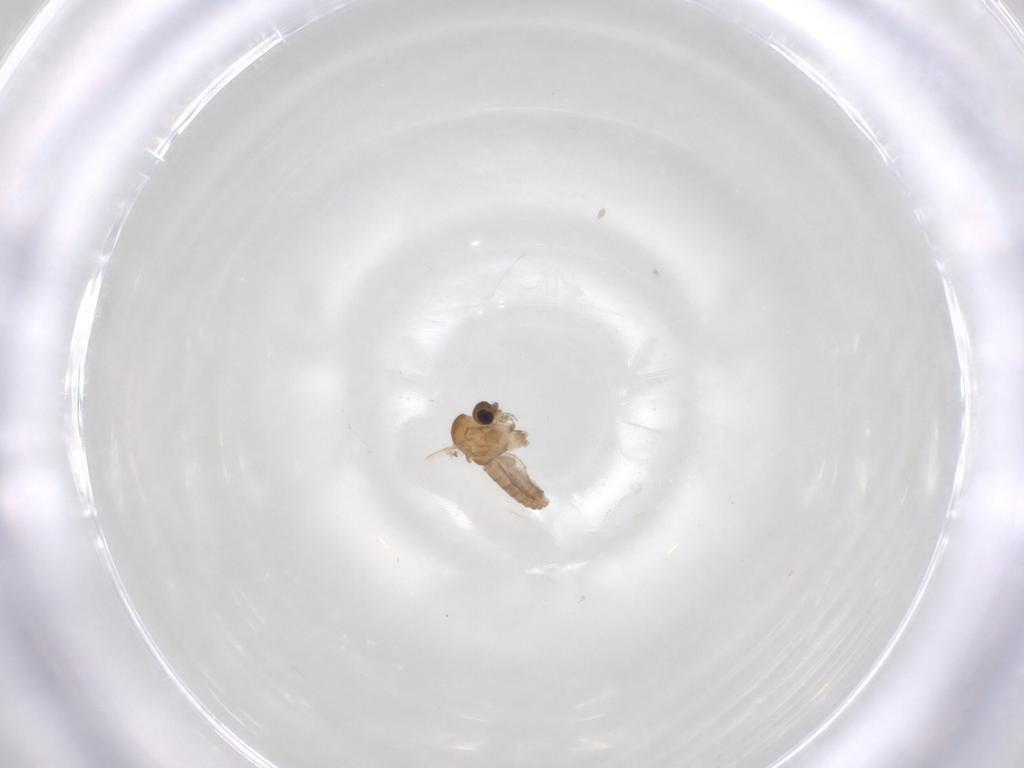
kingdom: Animalia
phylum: Arthropoda
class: Insecta
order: Diptera
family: Psychodidae
